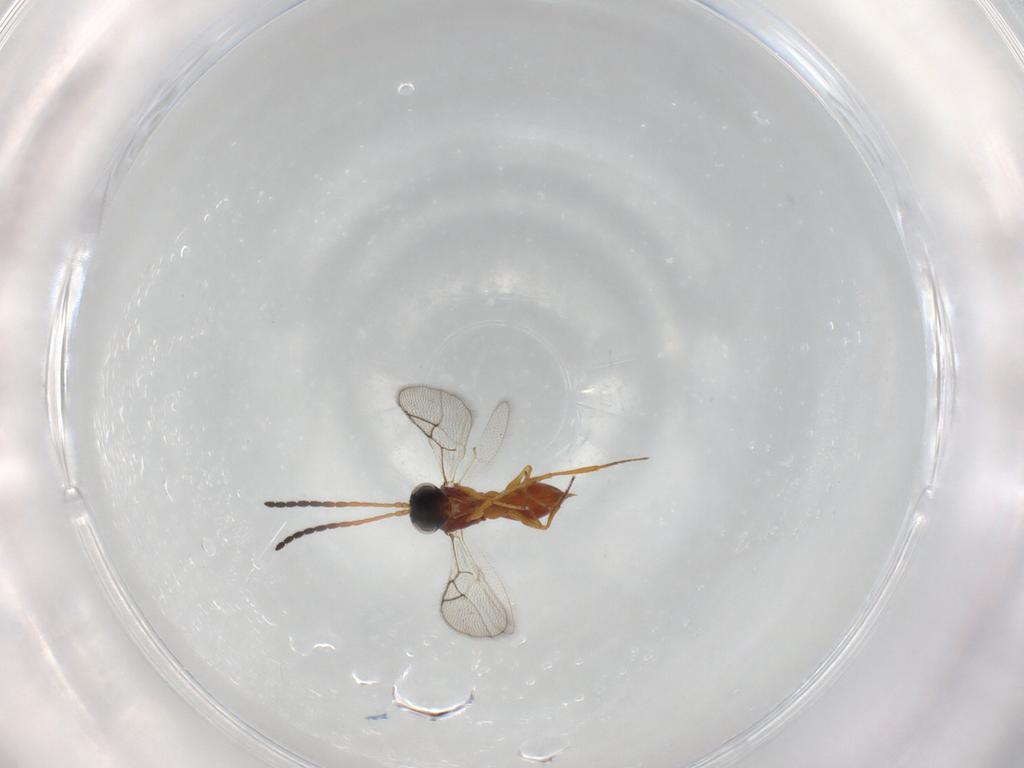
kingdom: Animalia
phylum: Arthropoda
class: Insecta
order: Hymenoptera
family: Figitidae
